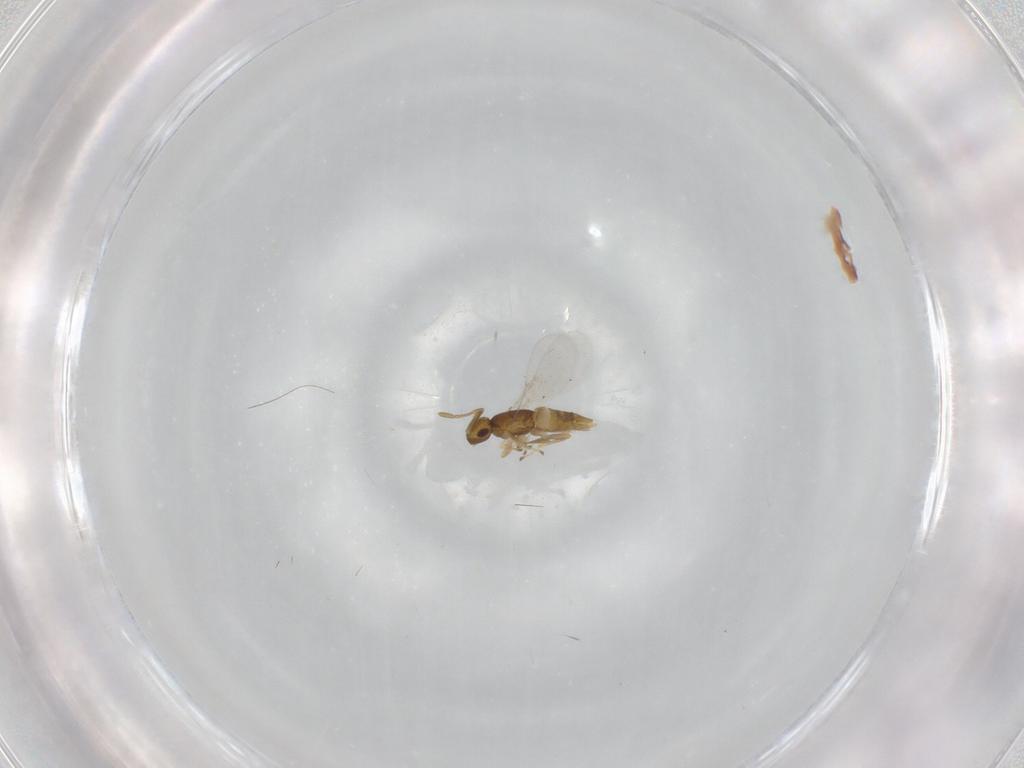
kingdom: Animalia
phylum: Arthropoda
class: Insecta
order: Hymenoptera
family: Encyrtidae
